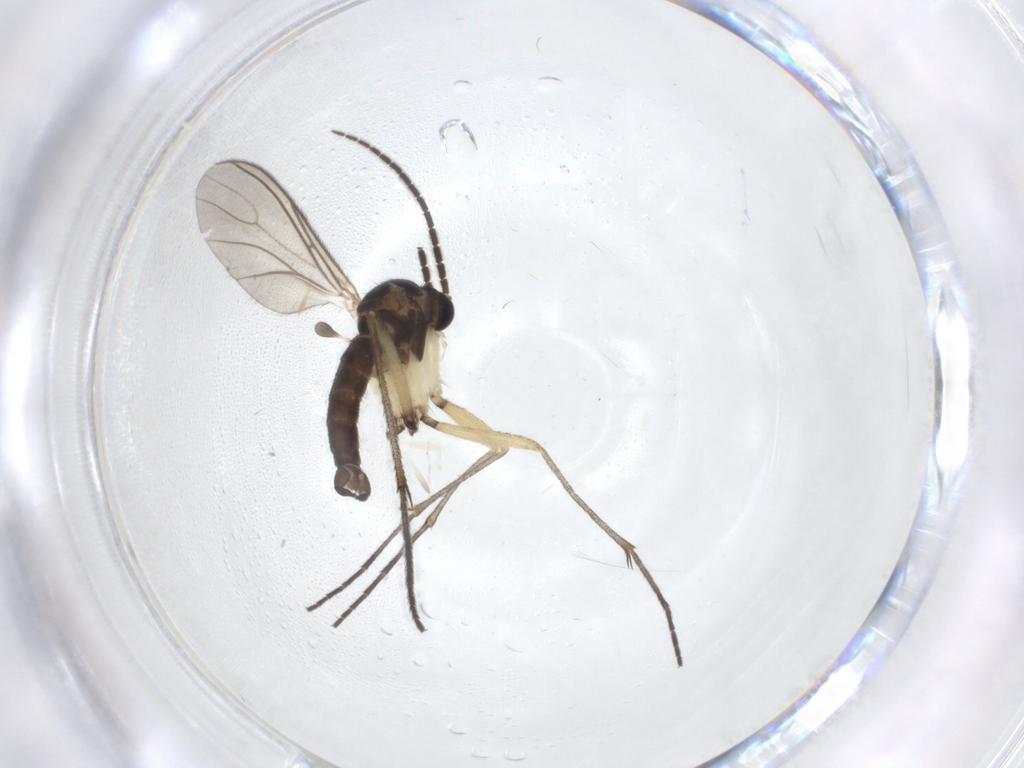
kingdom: Animalia
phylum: Arthropoda
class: Insecta
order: Diptera
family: Sciaridae
